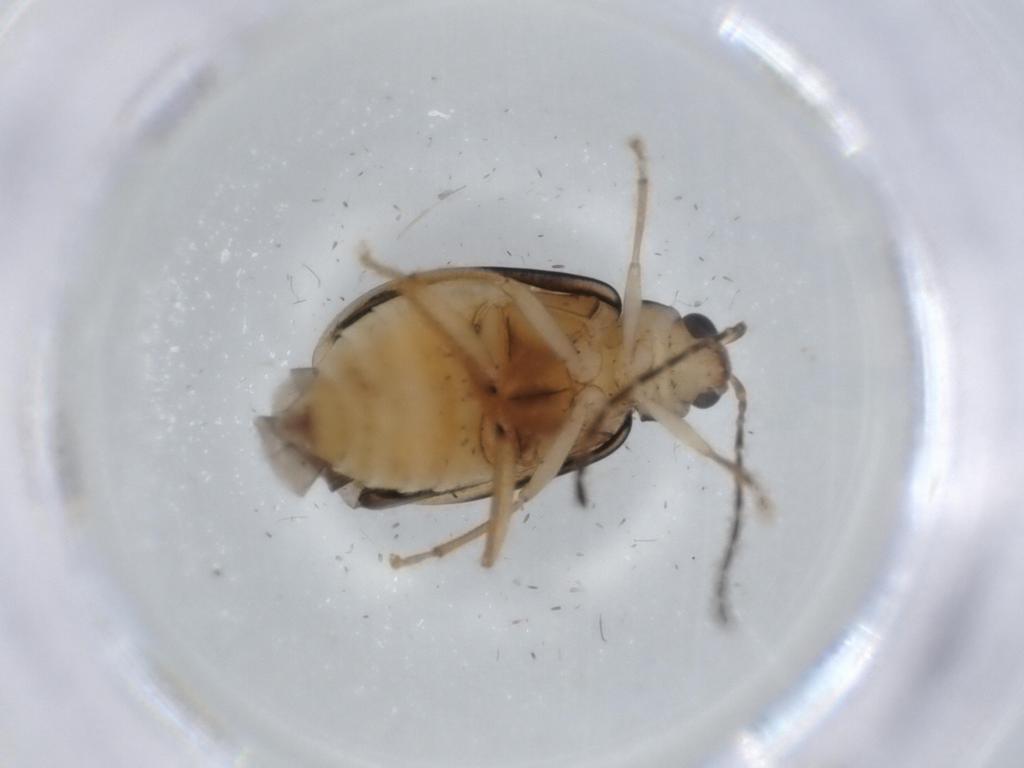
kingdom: Animalia
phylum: Arthropoda
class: Insecta
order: Coleoptera
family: Chrysomelidae
